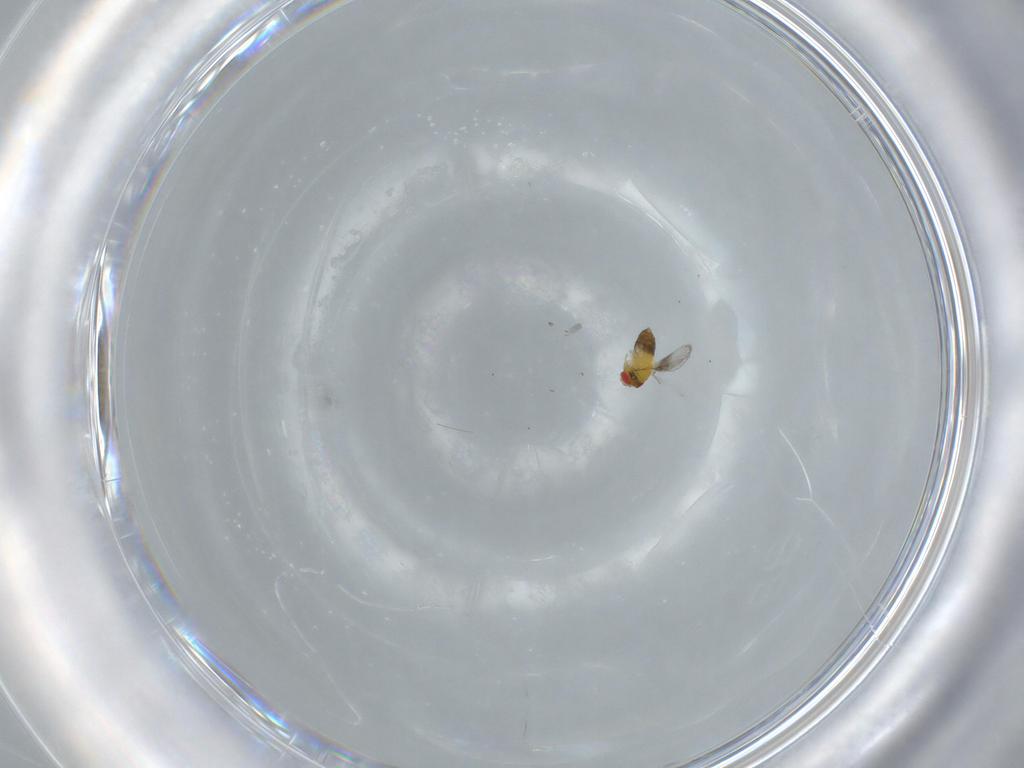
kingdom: Animalia
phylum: Arthropoda
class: Insecta
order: Hymenoptera
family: Trichogrammatidae
